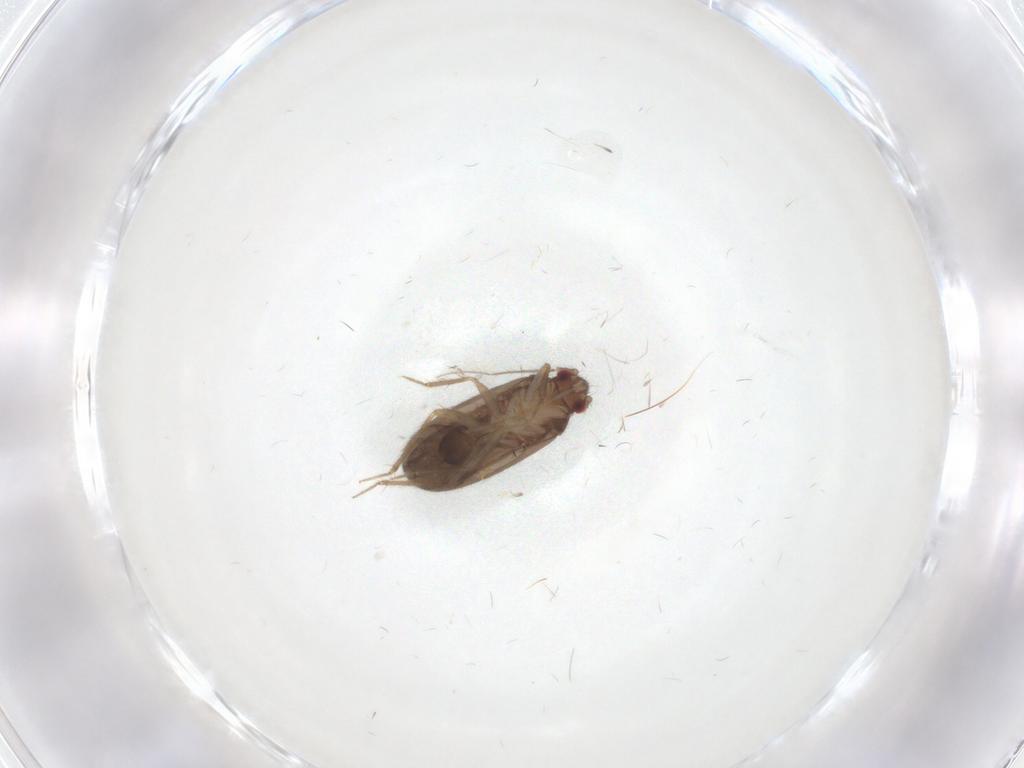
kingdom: Animalia
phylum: Arthropoda
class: Insecta
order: Hemiptera
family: Ceratocombidae
